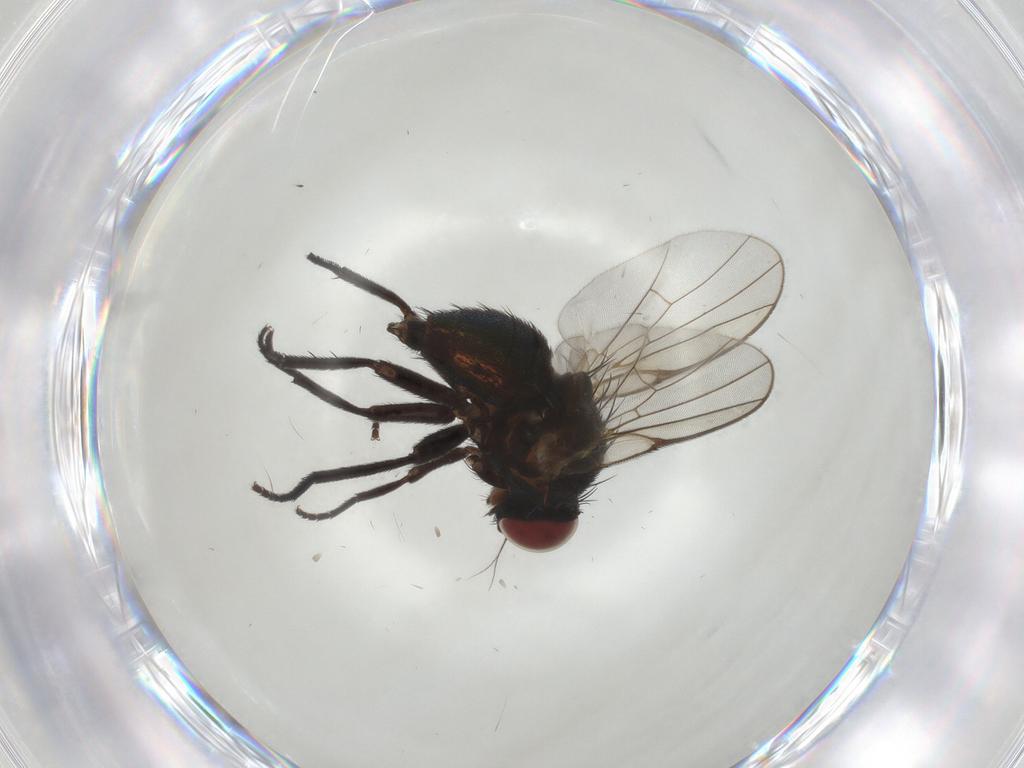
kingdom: Animalia
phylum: Arthropoda
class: Insecta
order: Diptera
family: Agromyzidae
